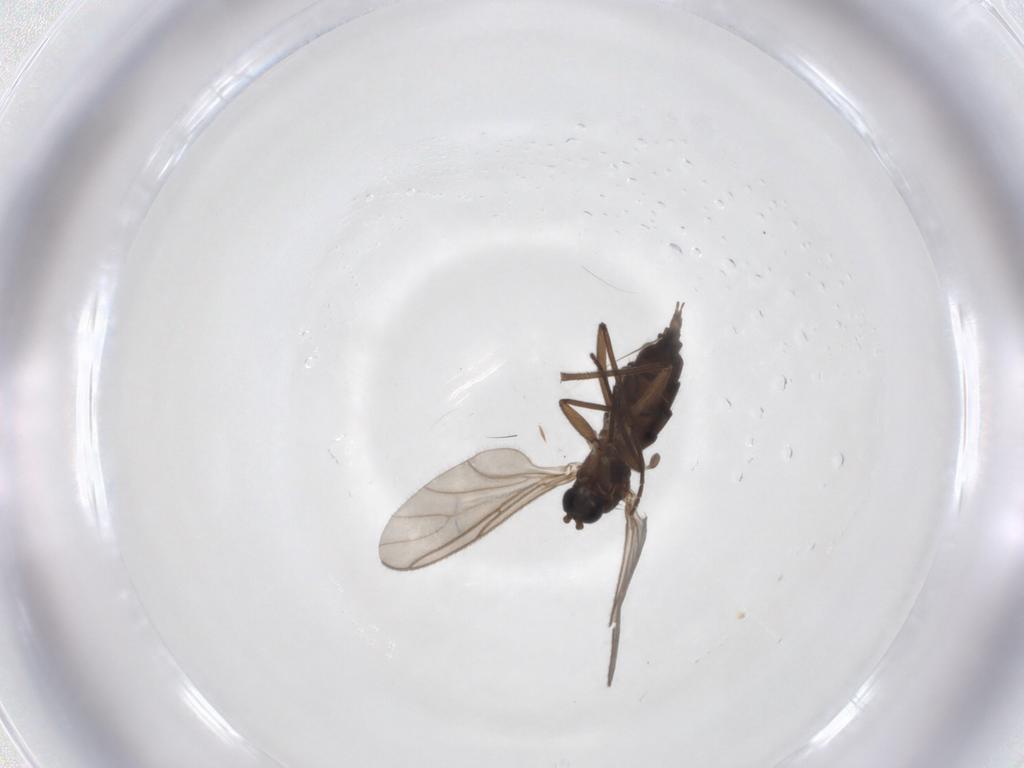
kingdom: Animalia
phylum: Arthropoda
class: Insecta
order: Diptera
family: Sciaridae
